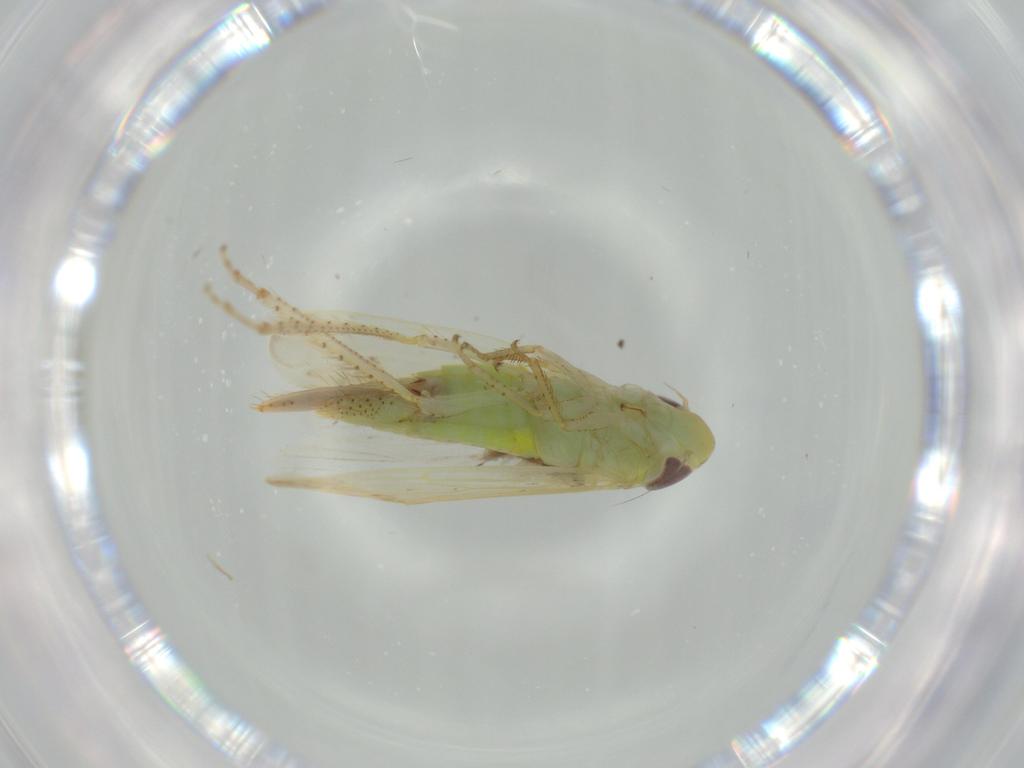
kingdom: Animalia
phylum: Arthropoda
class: Insecta
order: Hemiptera
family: Cicadellidae
